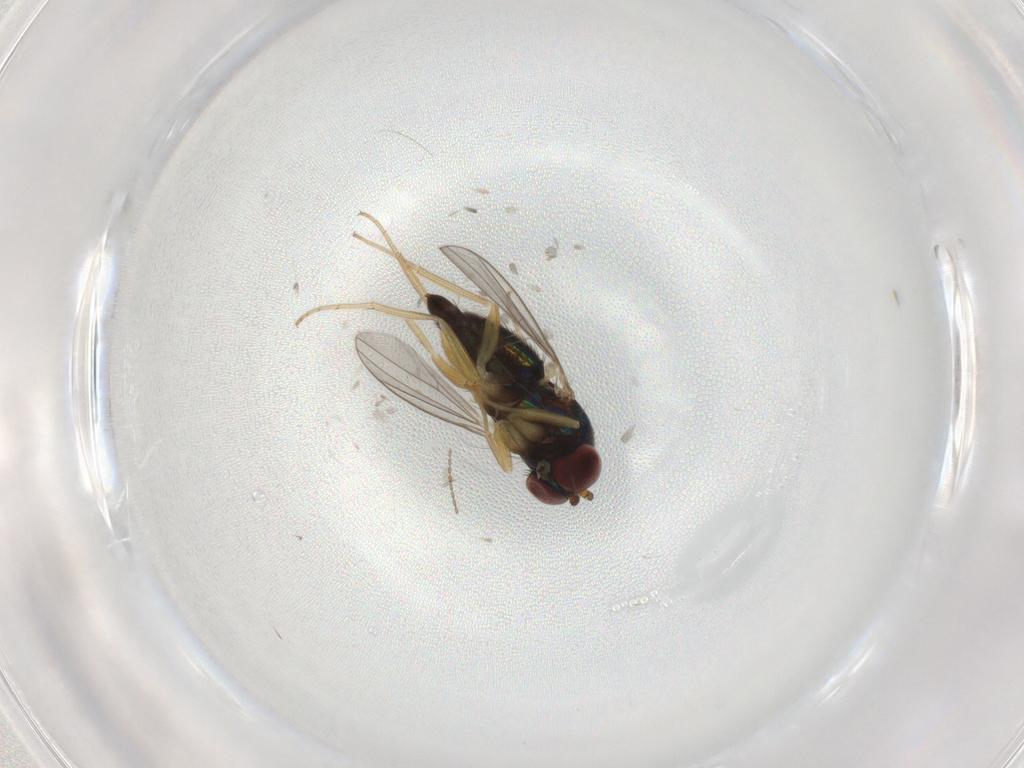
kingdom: Animalia
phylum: Arthropoda
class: Insecta
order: Diptera
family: Dolichopodidae
